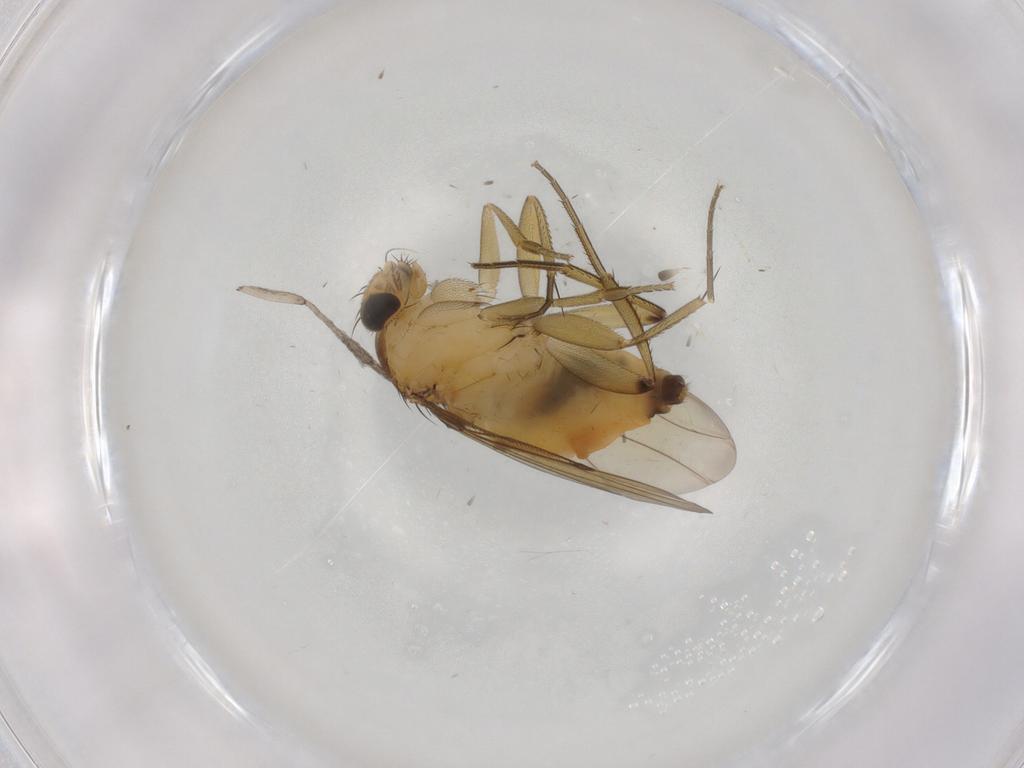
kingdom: Animalia
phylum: Arthropoda
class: Insecta
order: Diptera
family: Phoridae
